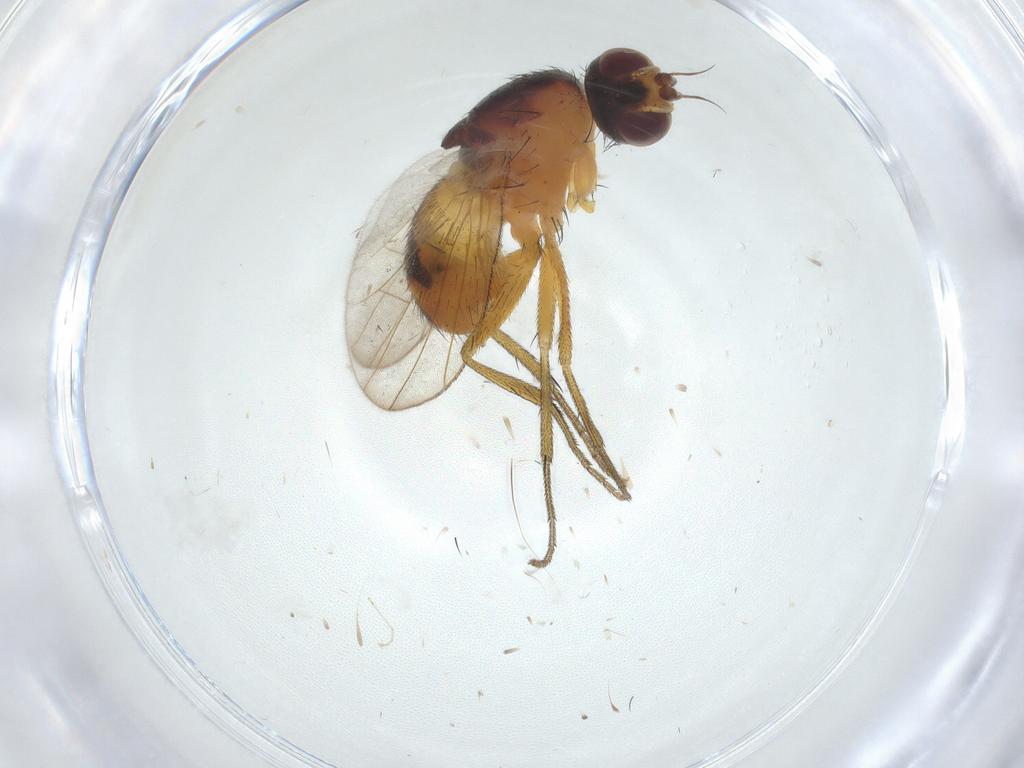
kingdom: Animalia
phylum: Arthropoda
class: Insecta
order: Diptera
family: Muscidae
